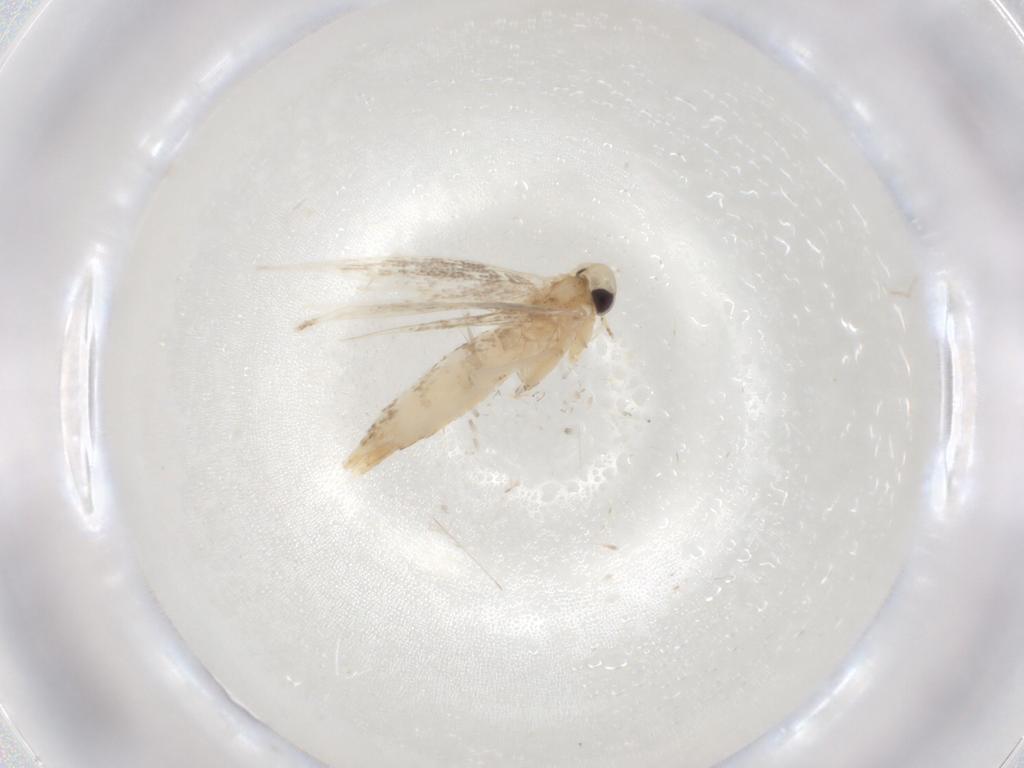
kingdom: Animalia
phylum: Arthropoda
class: Insecta
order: Lepidoptera
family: Gracillariidae
